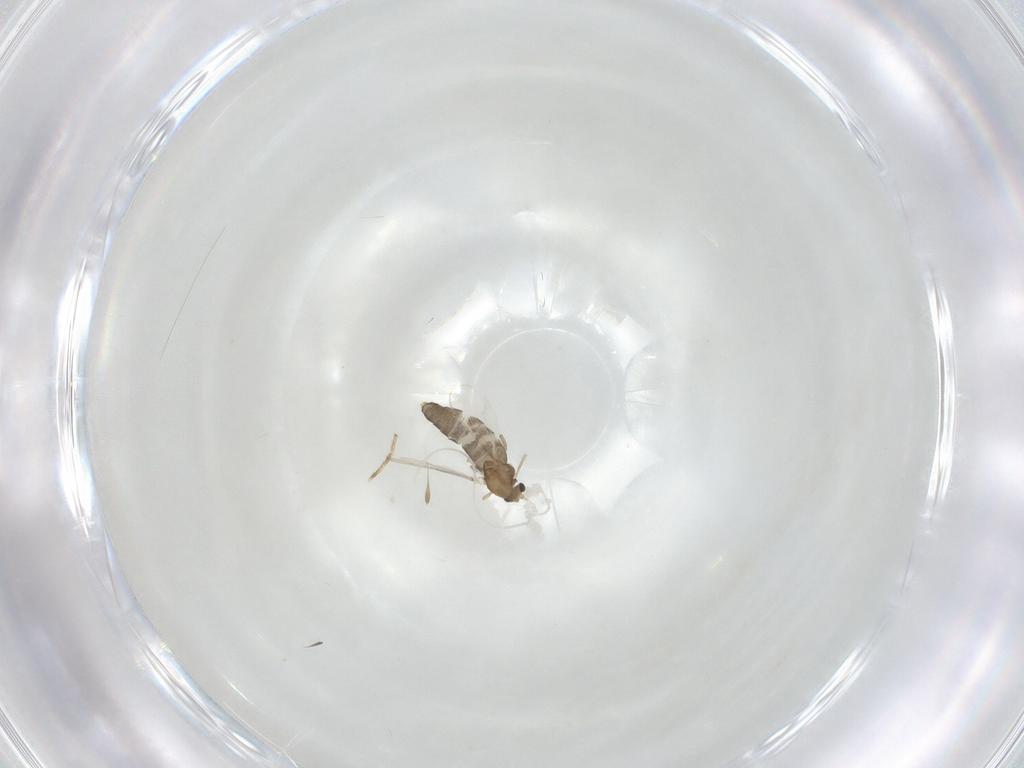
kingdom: Animalia
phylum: Arthropoda
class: Insecta
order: Diptera
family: Chironomidae
